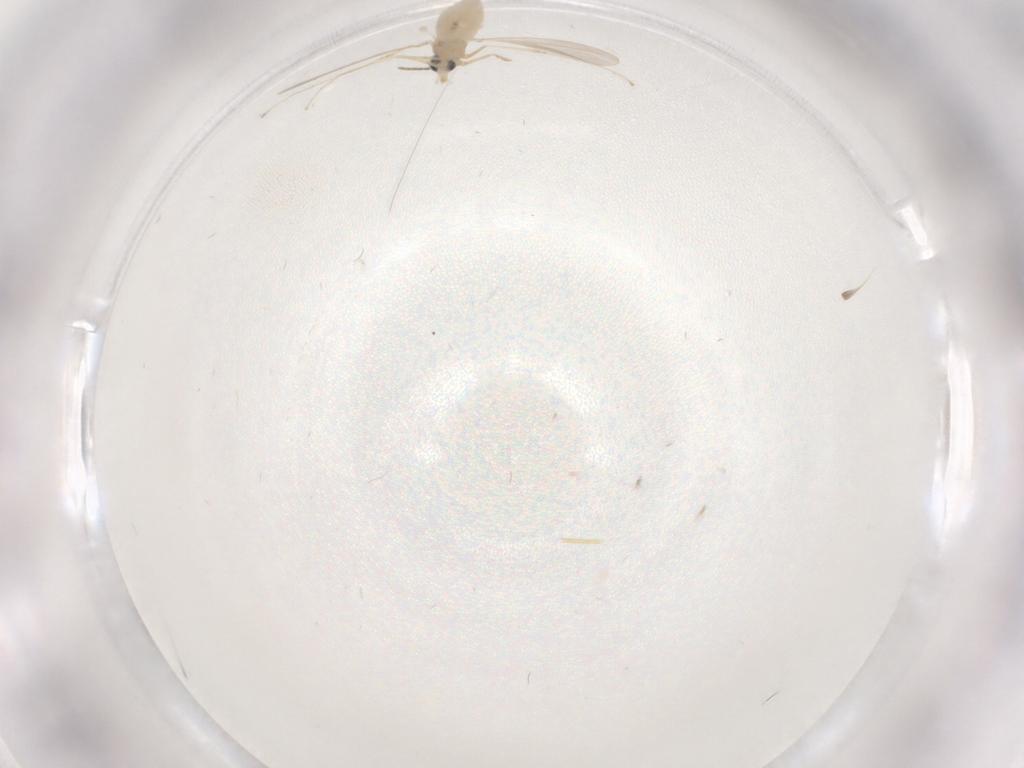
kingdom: Animalia
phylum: Arthropoda
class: Insecta
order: Diptera
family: Cecidomyiidae
